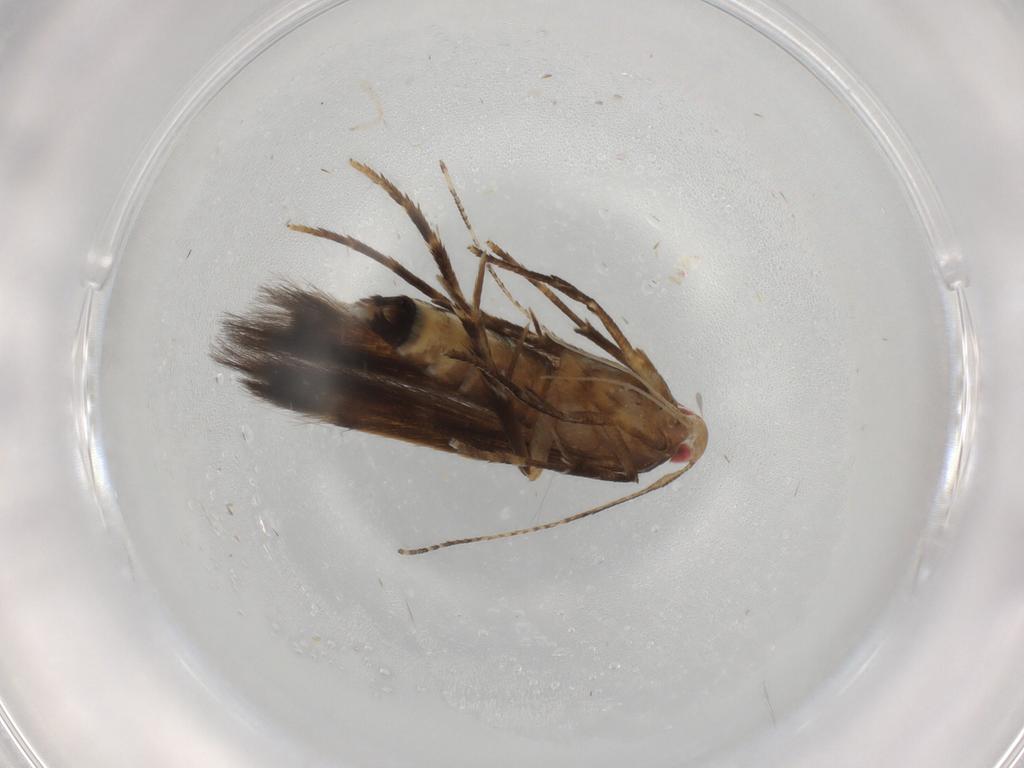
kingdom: Animalia
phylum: Arthropoda
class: Insecta
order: Lepidoptera
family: Cosmopterigidae
